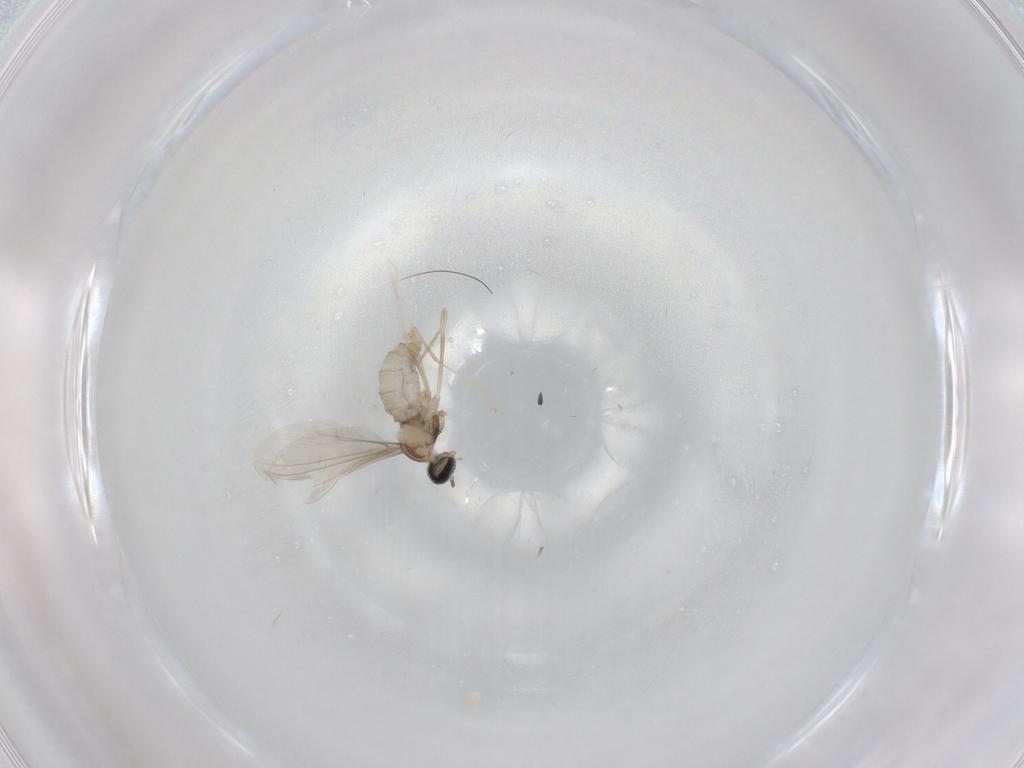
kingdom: Animalia
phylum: Arthropoda
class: Insecta
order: Diptera
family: Cecidomyiidae
